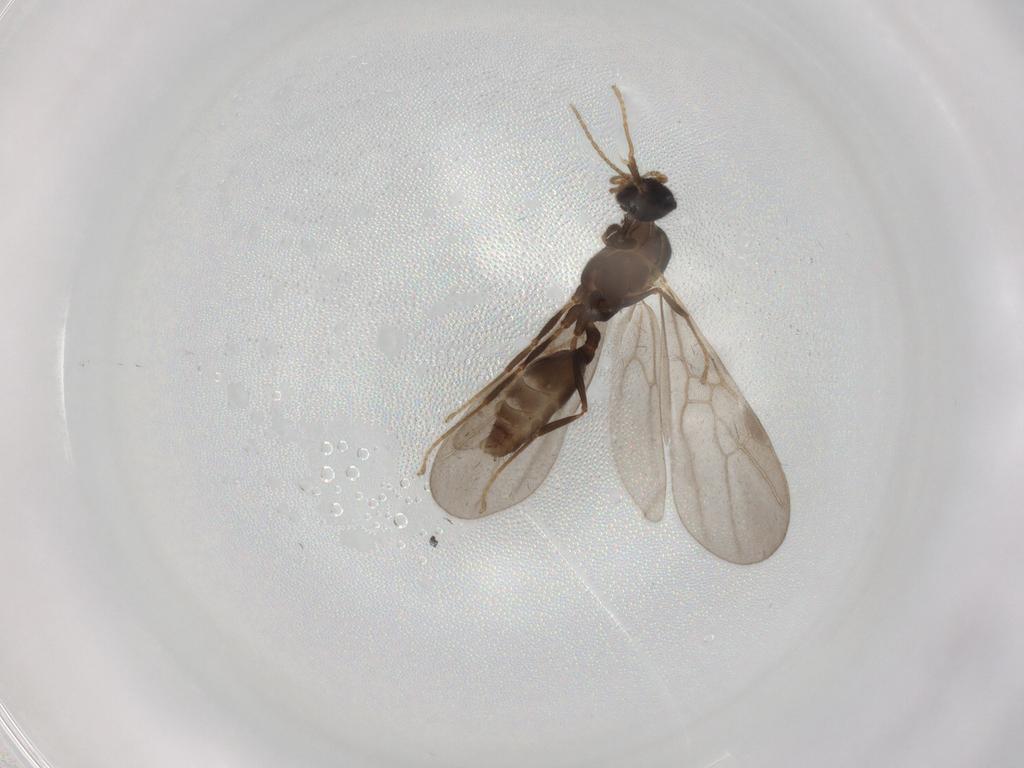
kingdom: Animalia
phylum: Arthropoda
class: Insecta
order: Hymenoptera
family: Formicidae
